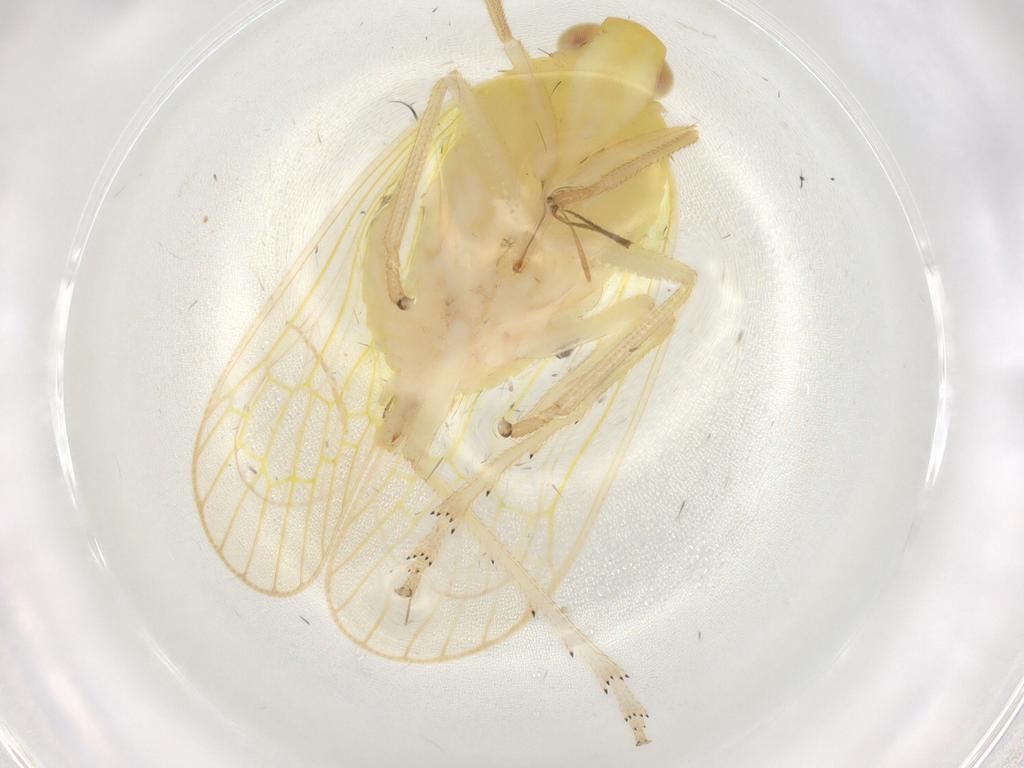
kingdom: Animalia
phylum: Arthropoda
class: Insecta
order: Hemiptera
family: Tropiduchidae
